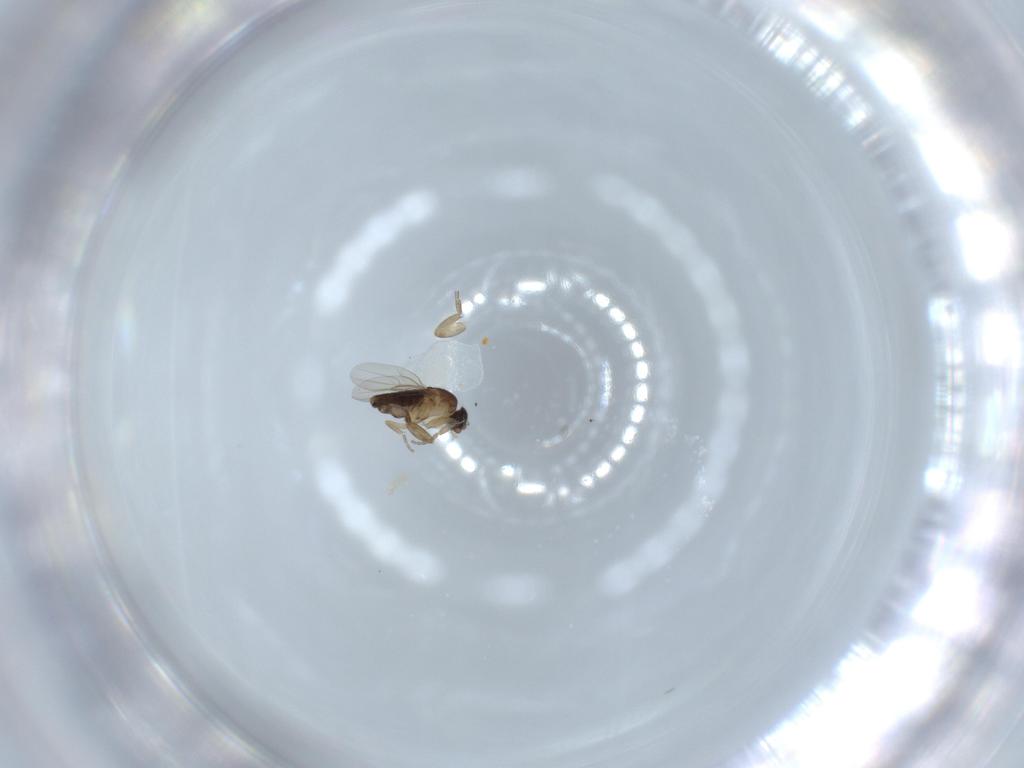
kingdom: Animalia
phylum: Arthropoda
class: Insecta
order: Diptera
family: Phoridae
